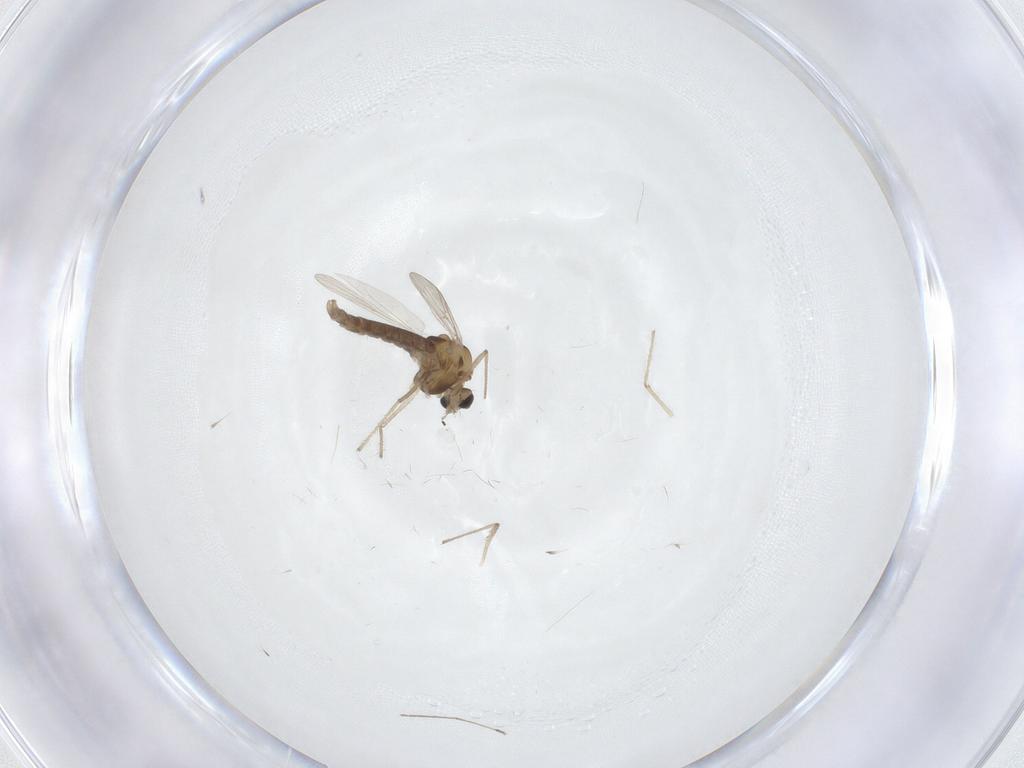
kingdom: Animalia
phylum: Arthropoda
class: Insecta
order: Diptera
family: Chironomidae
